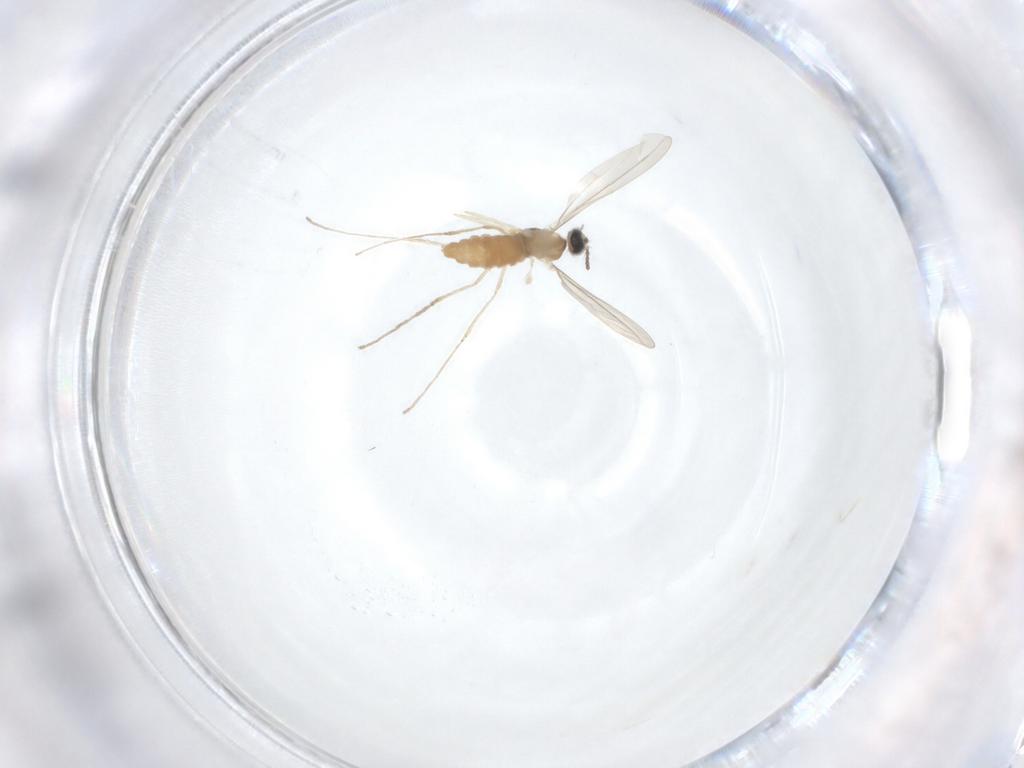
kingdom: Animalia
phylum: Arthropoda
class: Insecta
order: Diptera
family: Cecidomyiidae
